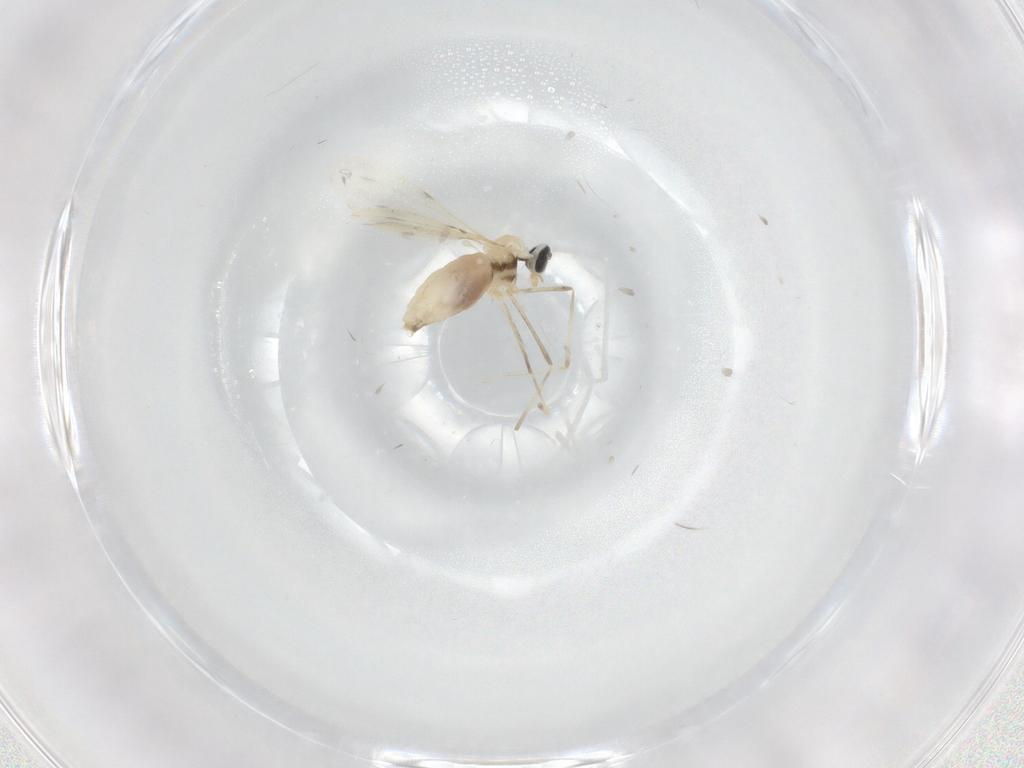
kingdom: Animalia
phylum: Arthropoda
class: Insecta
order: Diptera
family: Cecidomyiidae
